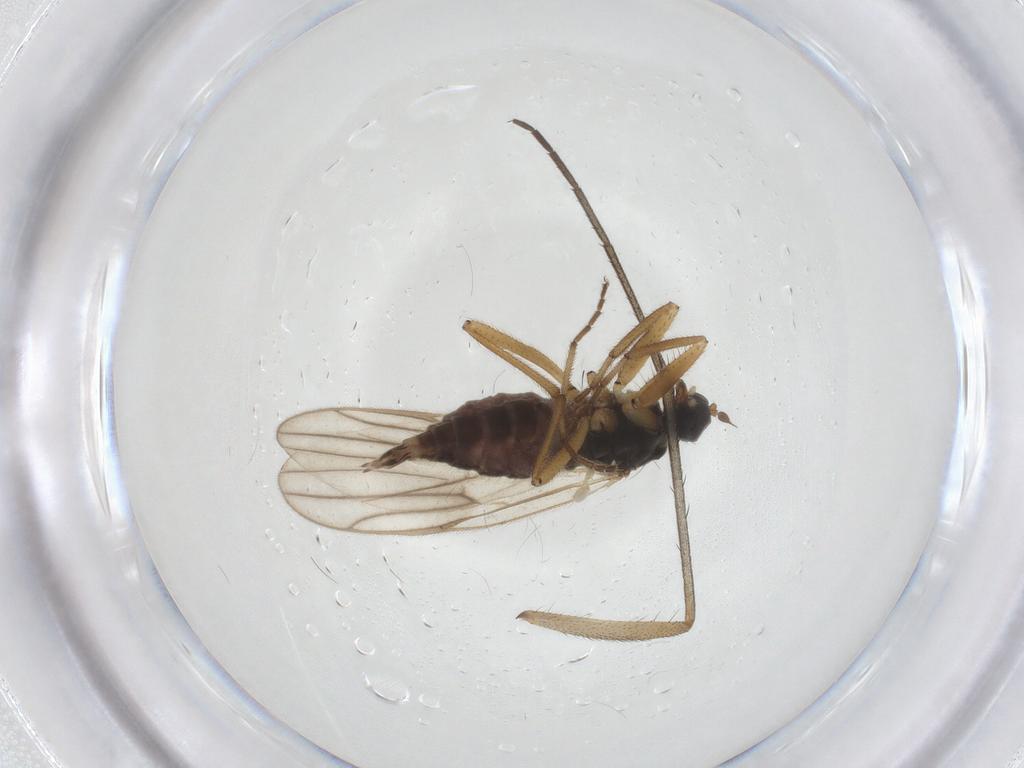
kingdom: Animalia
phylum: Arthropoda
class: Insecta
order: Diptera
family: Hybotidae
